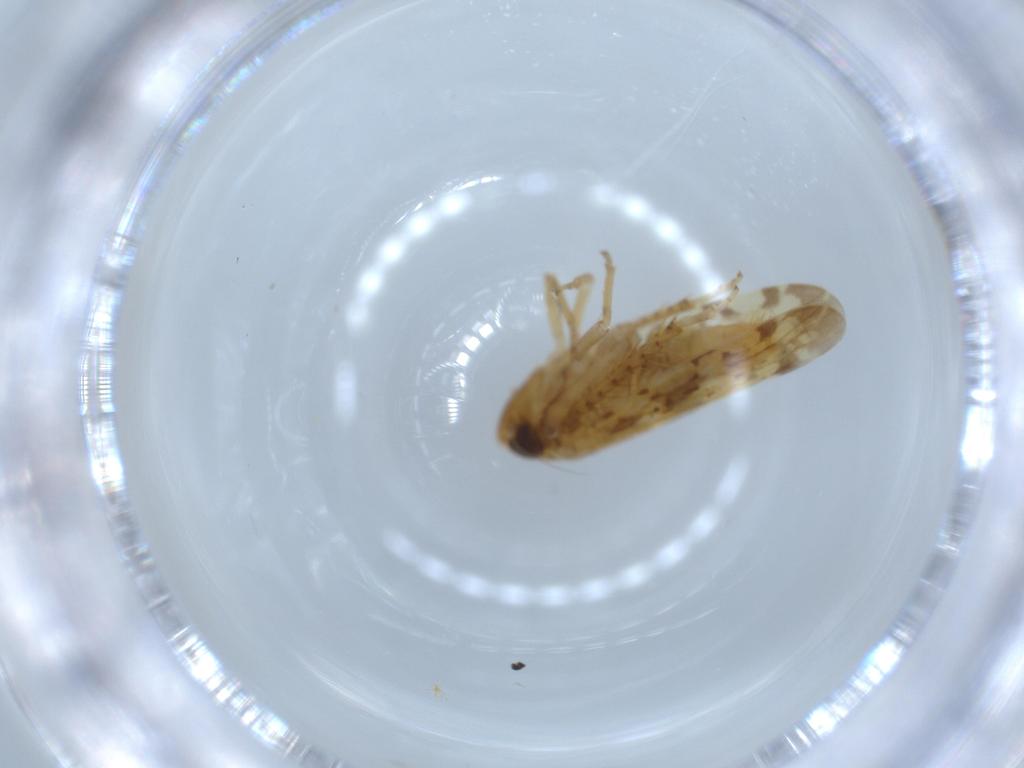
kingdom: Animalia
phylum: Arthropoda
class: Insecta
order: Hemiptera
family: Cicadellidae
